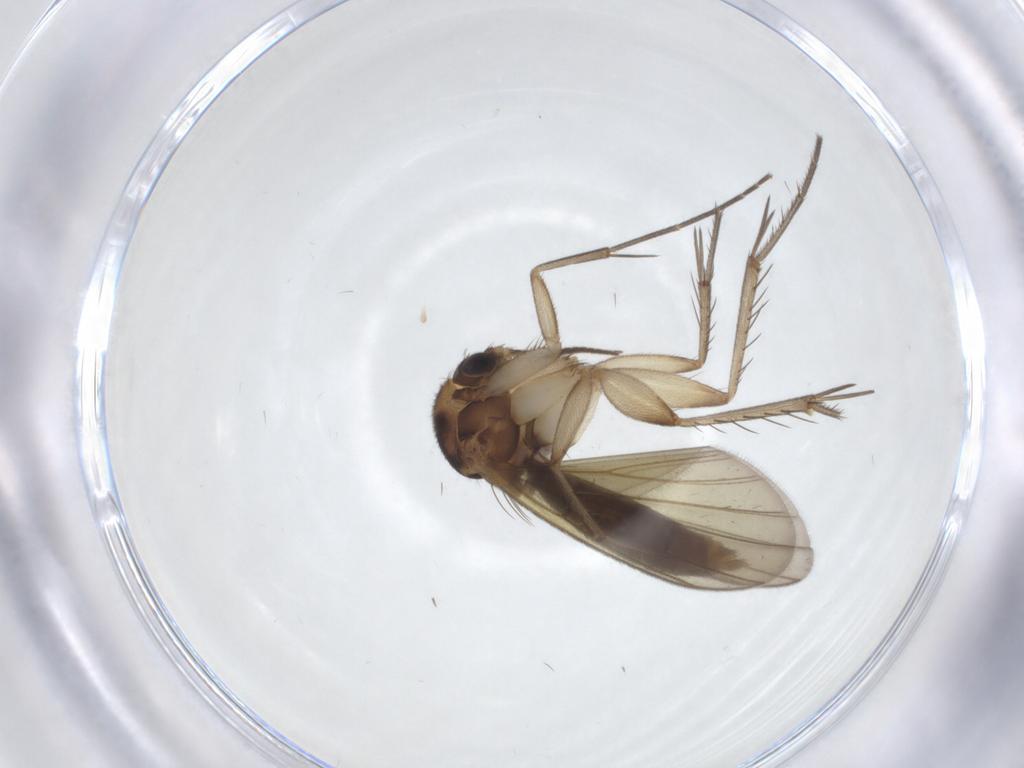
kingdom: Animalia
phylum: Arthropoda
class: Insecta
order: Diptera
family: Mycetophilidae
